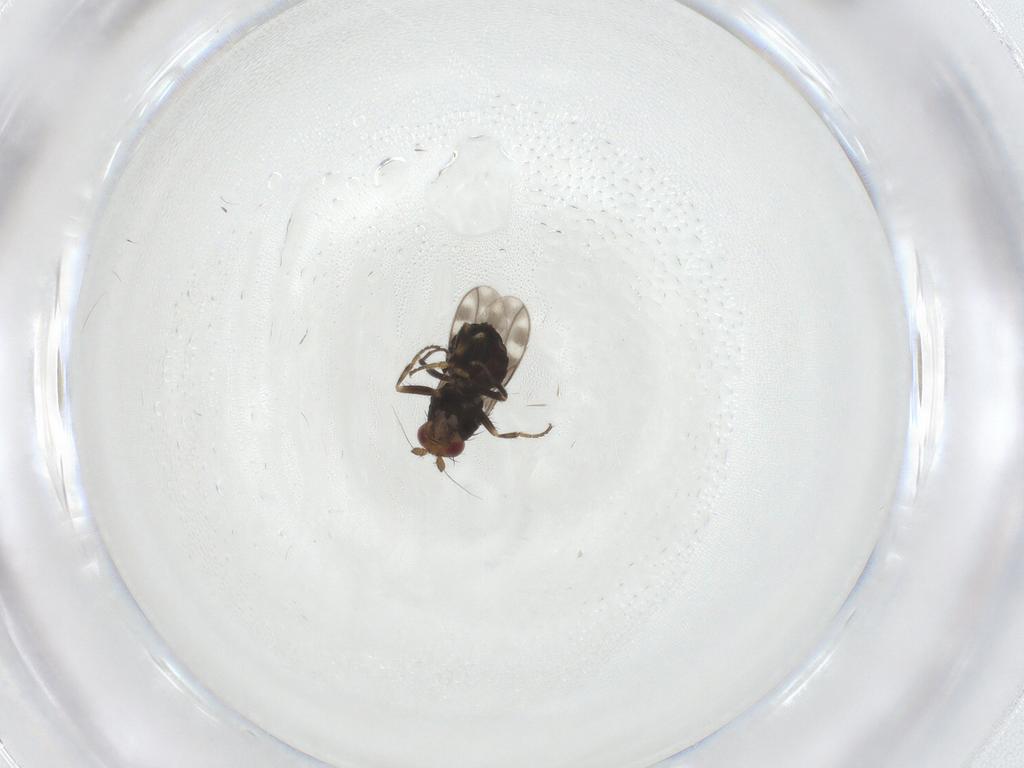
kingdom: Animalia
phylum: Arthropoda
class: Insecta
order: Diptera
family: Sphaeroceridae
